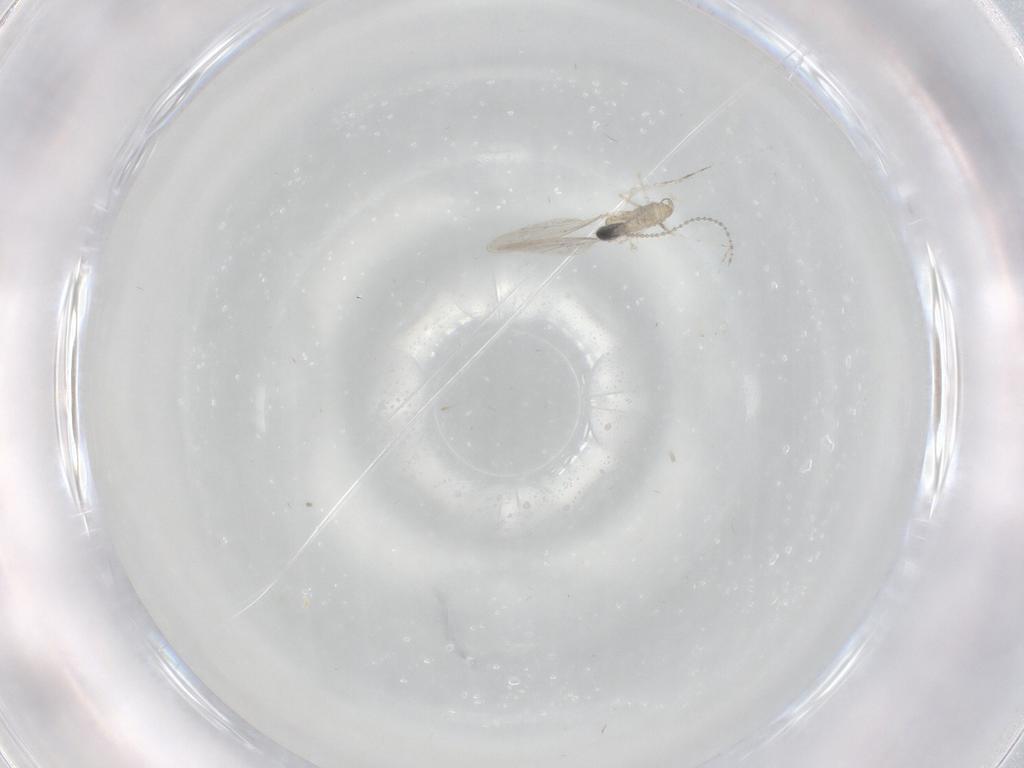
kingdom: Animalia
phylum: Arthropoda
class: Insecta
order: Diptera
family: Cecidomyiidae
